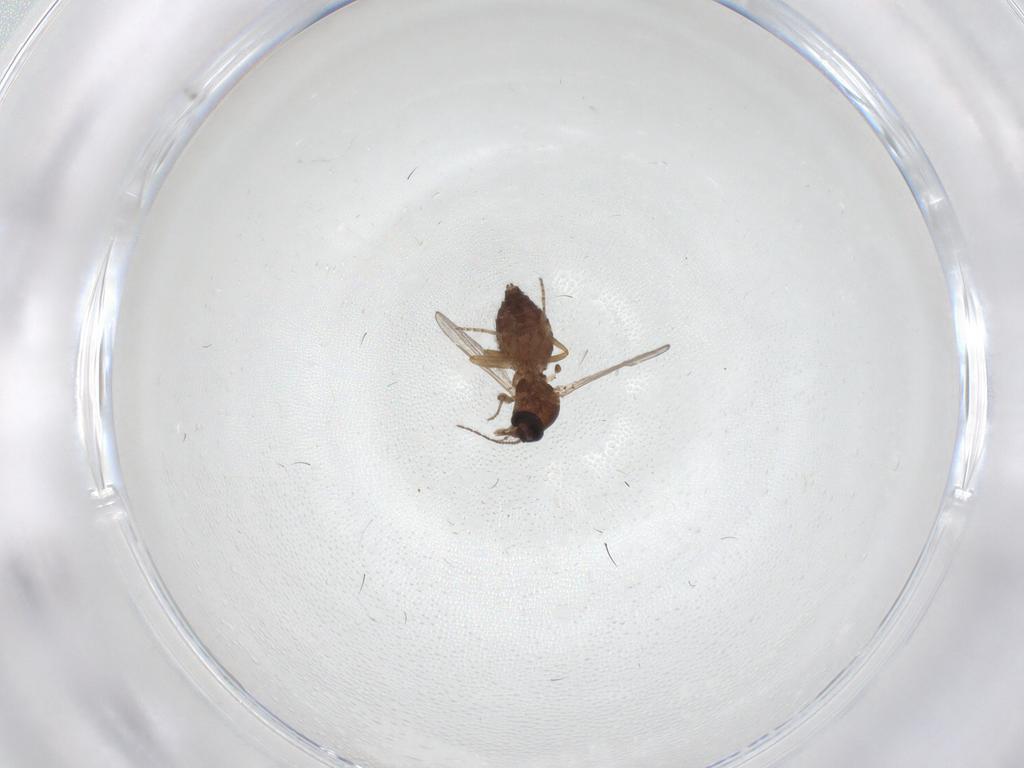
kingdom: Animalia
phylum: Arthropoda
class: Insecta
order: Diptera
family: Ceratopogonidae
